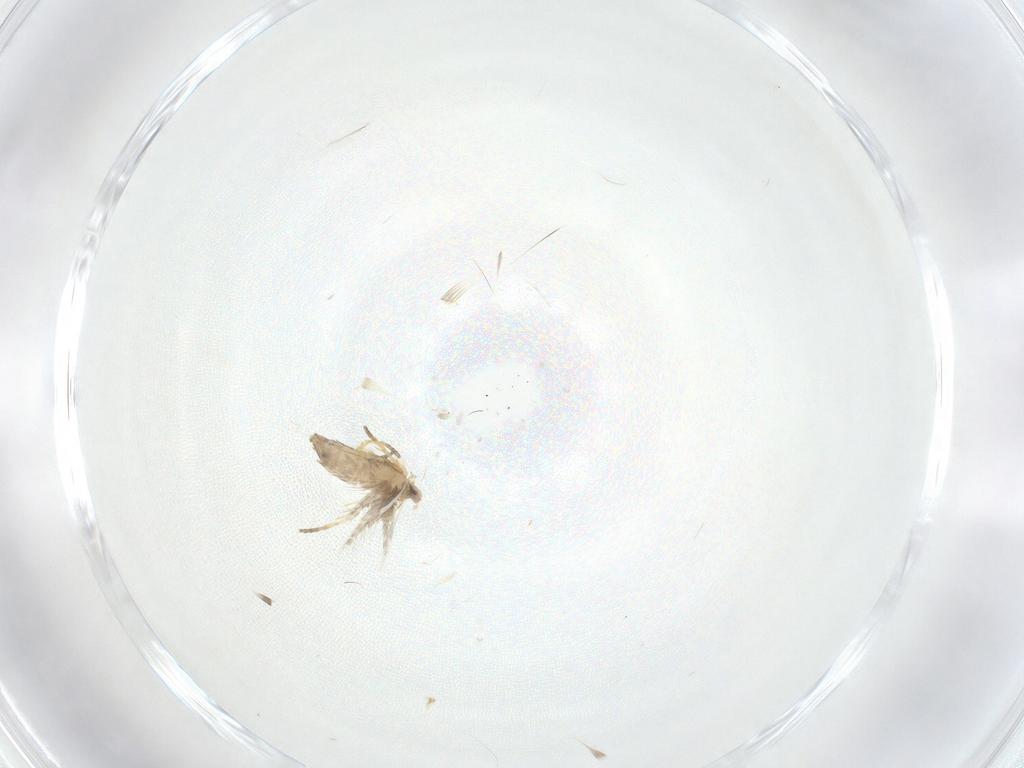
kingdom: Animalia
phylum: Arthropoda
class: Insecta
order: Lepidoptera
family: Nepticulidae
